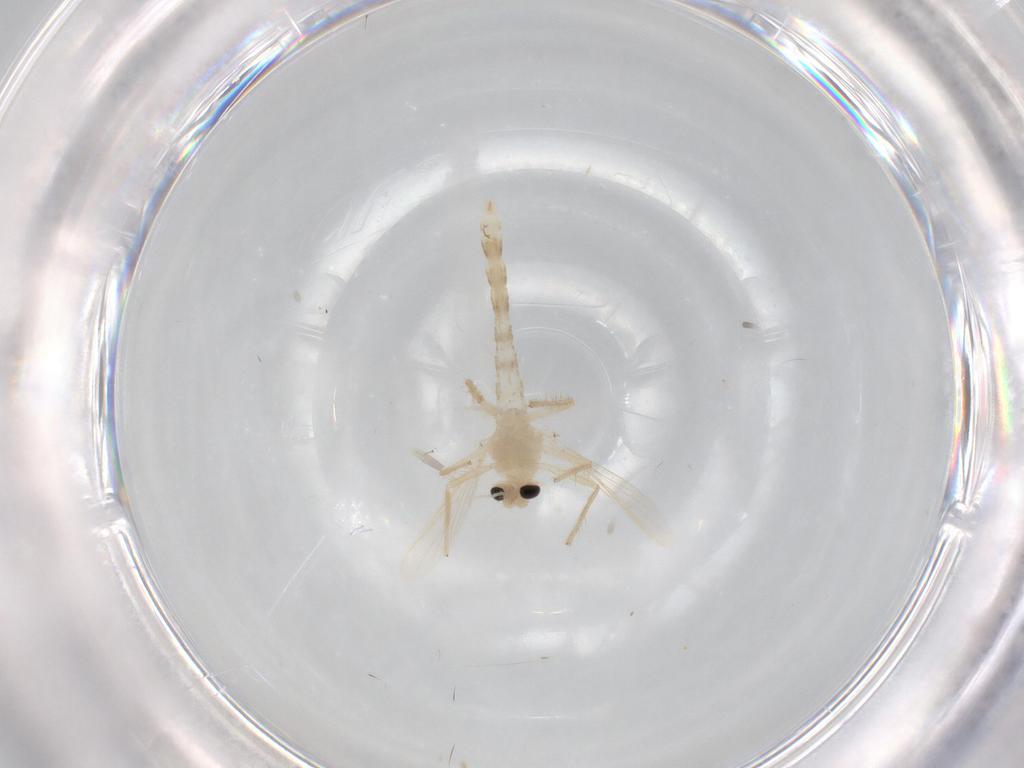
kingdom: Animalia
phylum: Arthropoda
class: Insecta
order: Diptera
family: Chironomidae
